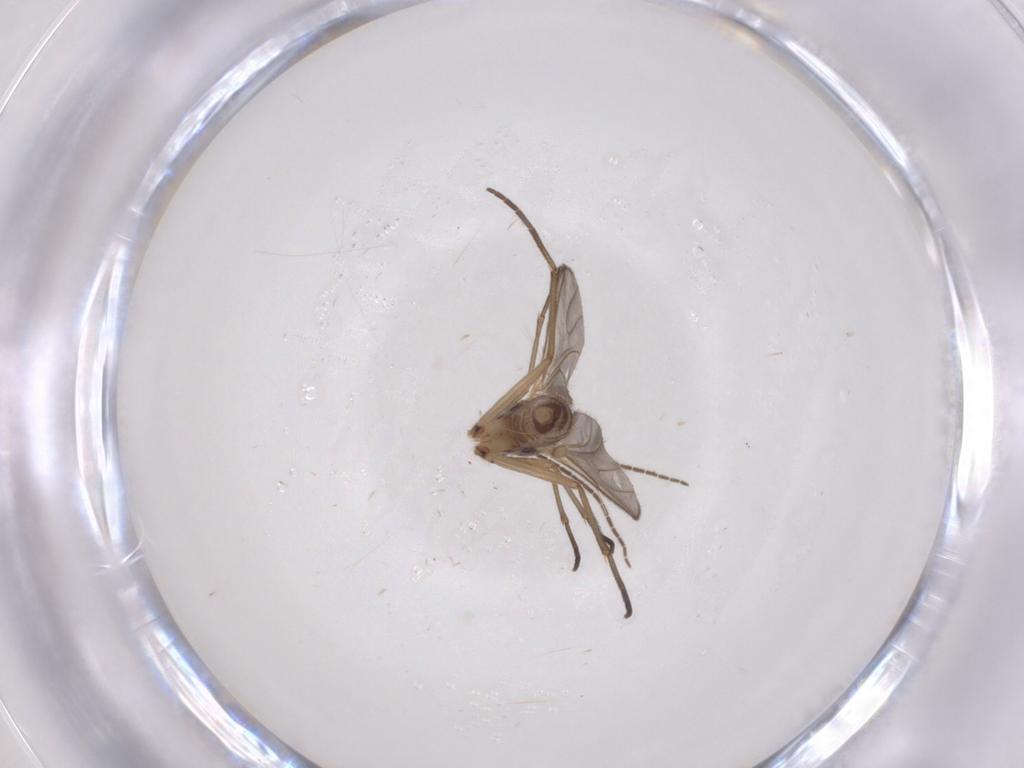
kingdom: Animalia
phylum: Arthropoda
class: Insecta
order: Diptera
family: Sciaridae
